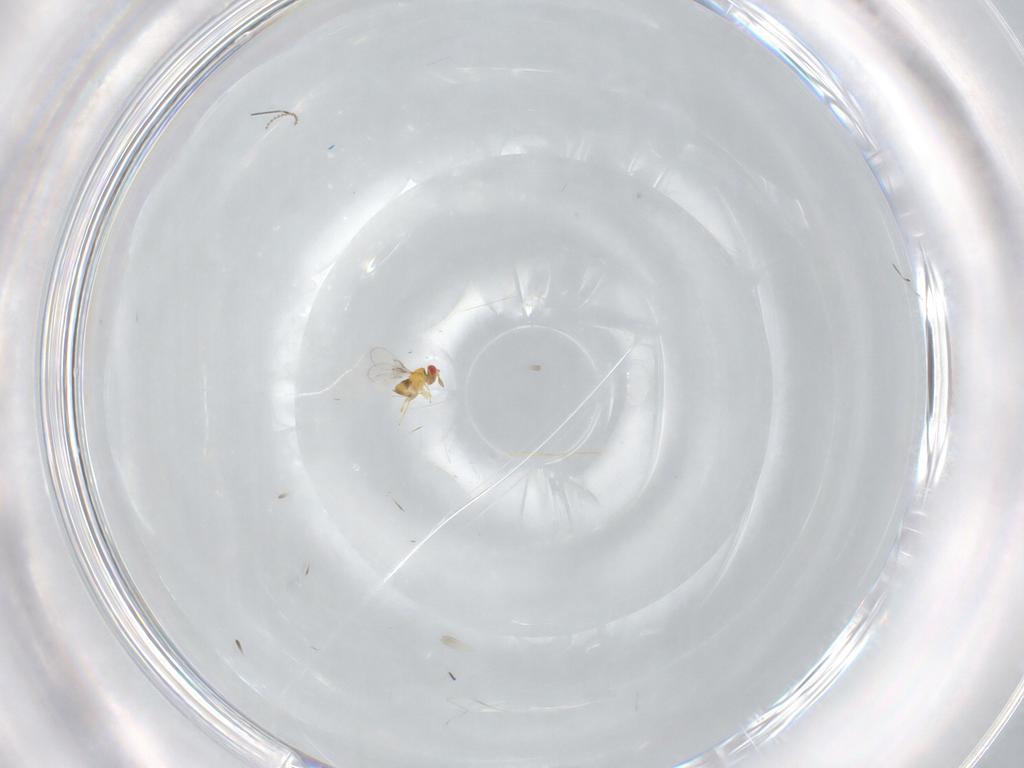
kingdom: Animalia
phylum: Arthropoda
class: Insecta
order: Hymenoptera
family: Trichogrammatidae
